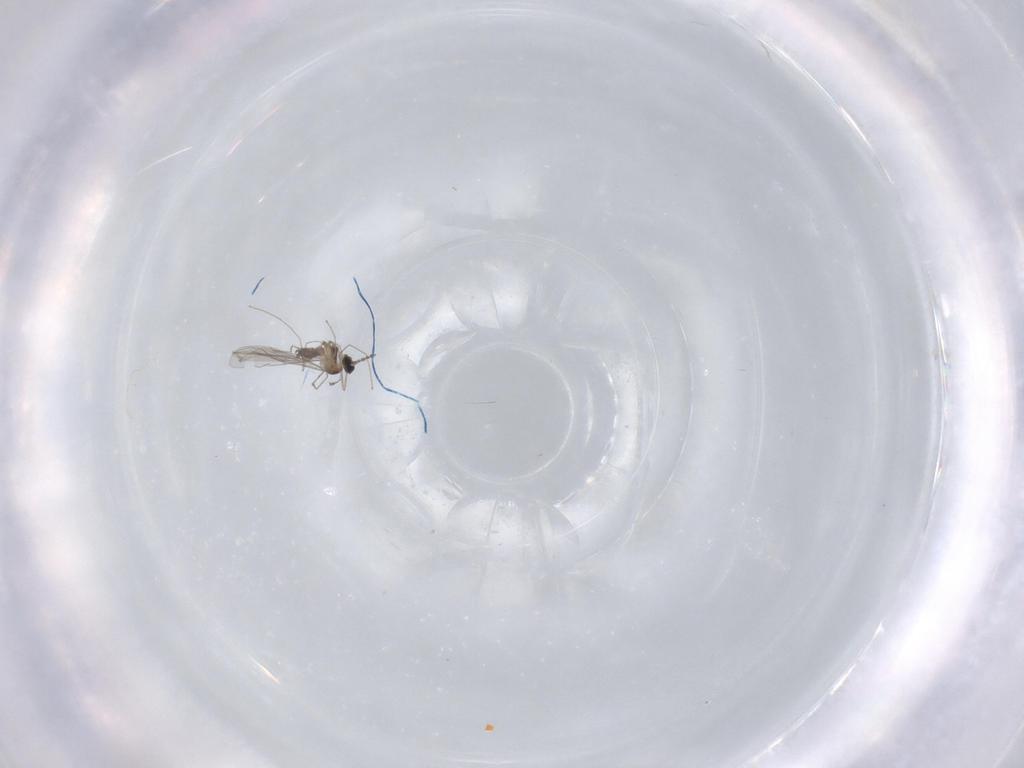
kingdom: Animalia
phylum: Arthropoda
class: Insecta
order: Diptera
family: Cecidomyiidae
